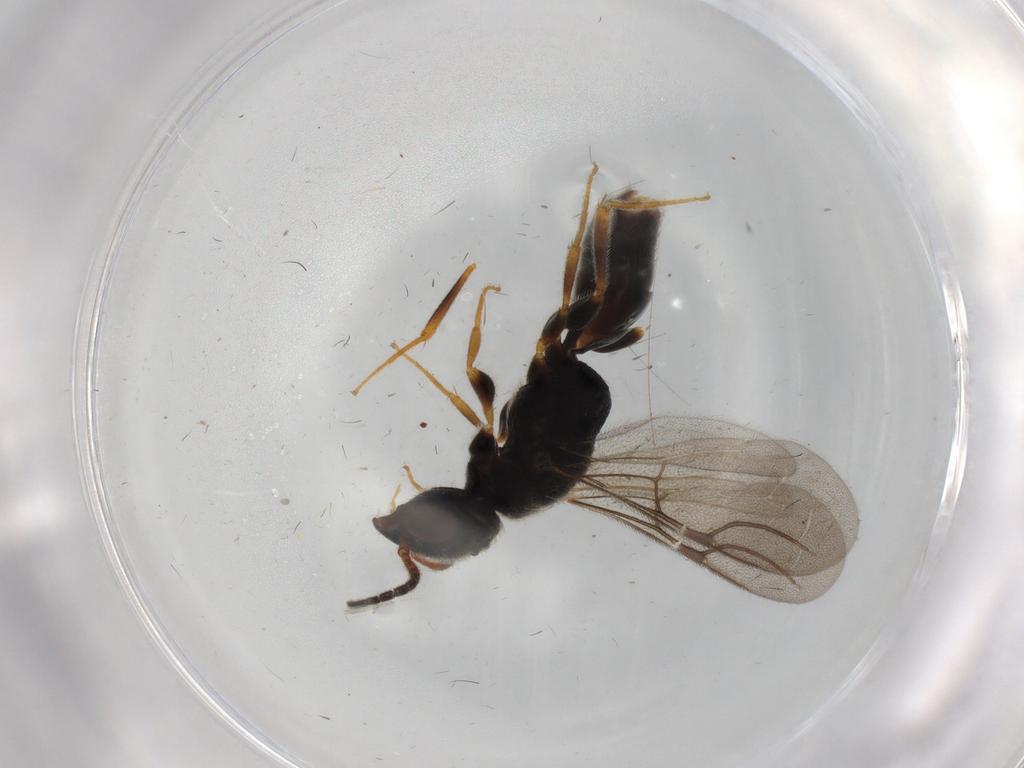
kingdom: Animalia
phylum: Arthropoda
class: Insecta
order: Hymenoptera
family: Bethylidae
